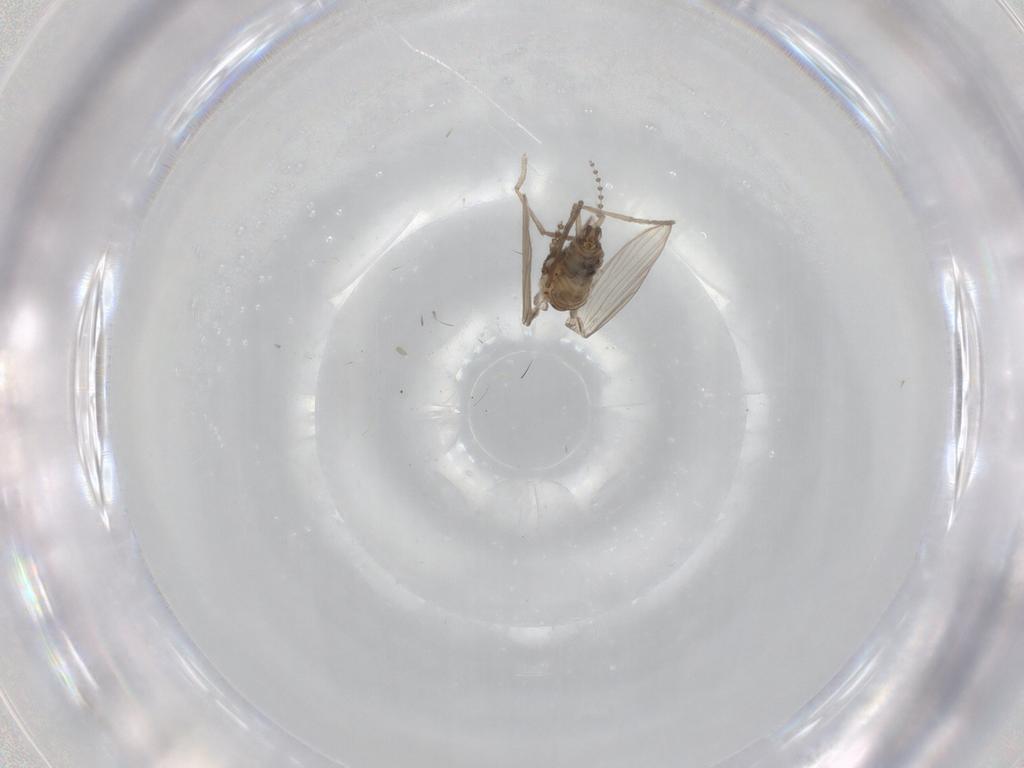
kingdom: Animalia
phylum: Arthropoda
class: Insecta
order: Diptera
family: Psychodidae
